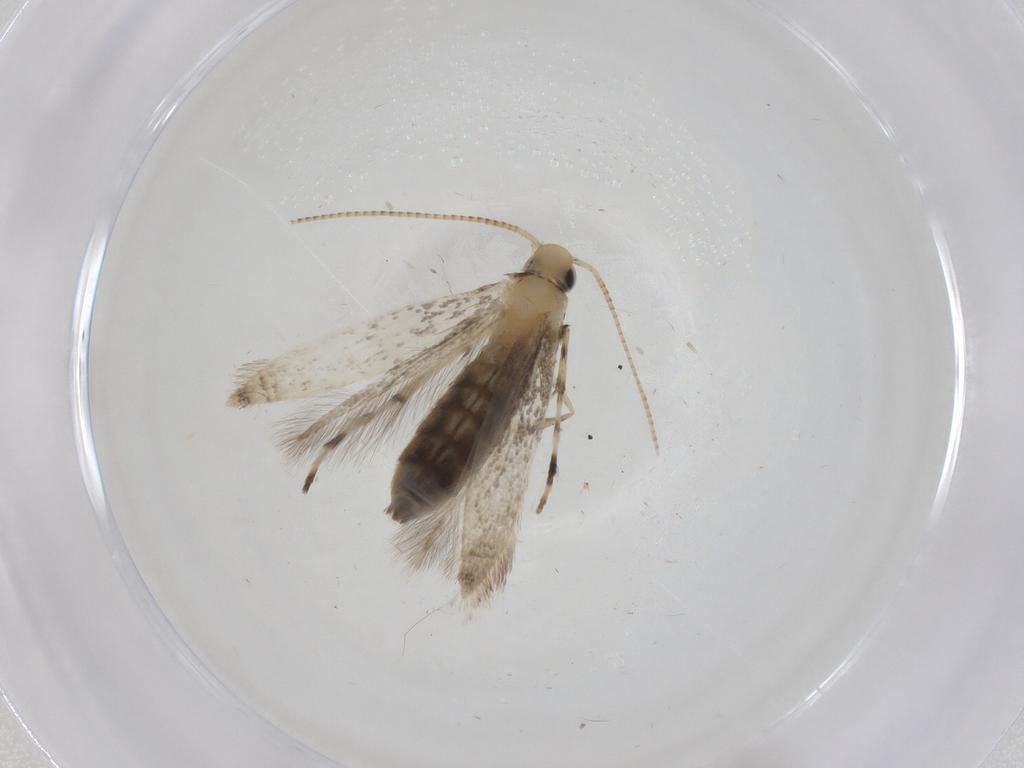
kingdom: Animalia
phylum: Arthropoda
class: Insecta
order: Lepidoptera
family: Gracillariidae
